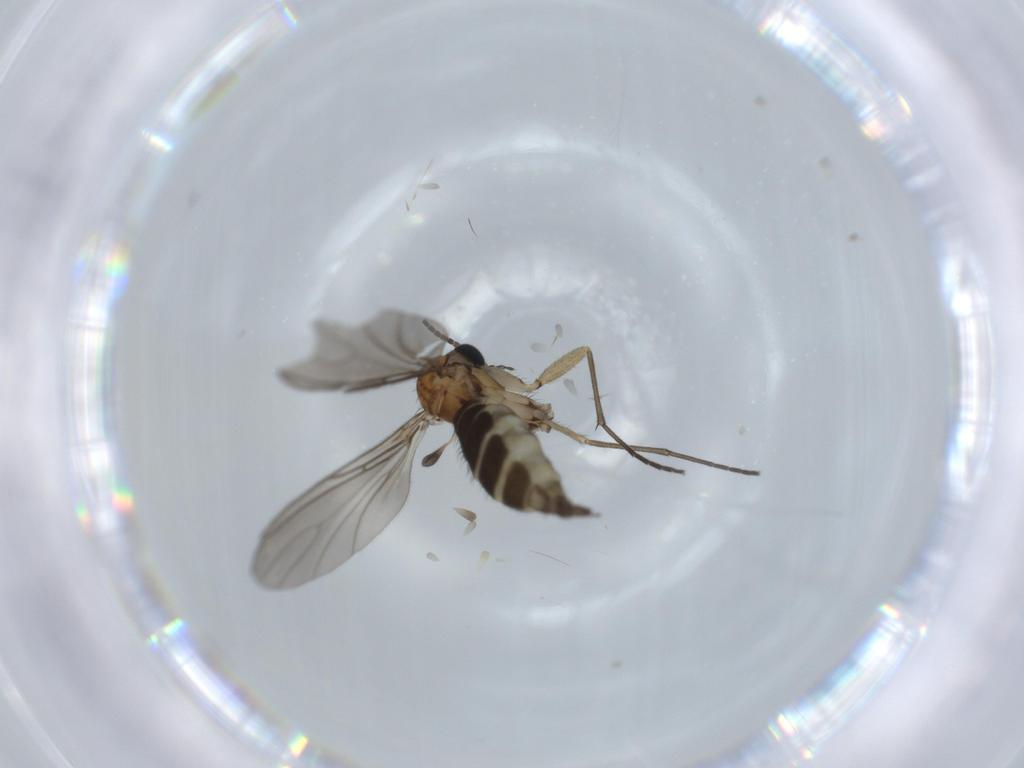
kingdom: Animalia
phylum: Arthropoda
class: Insecta
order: Diptera
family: Sciaridae
